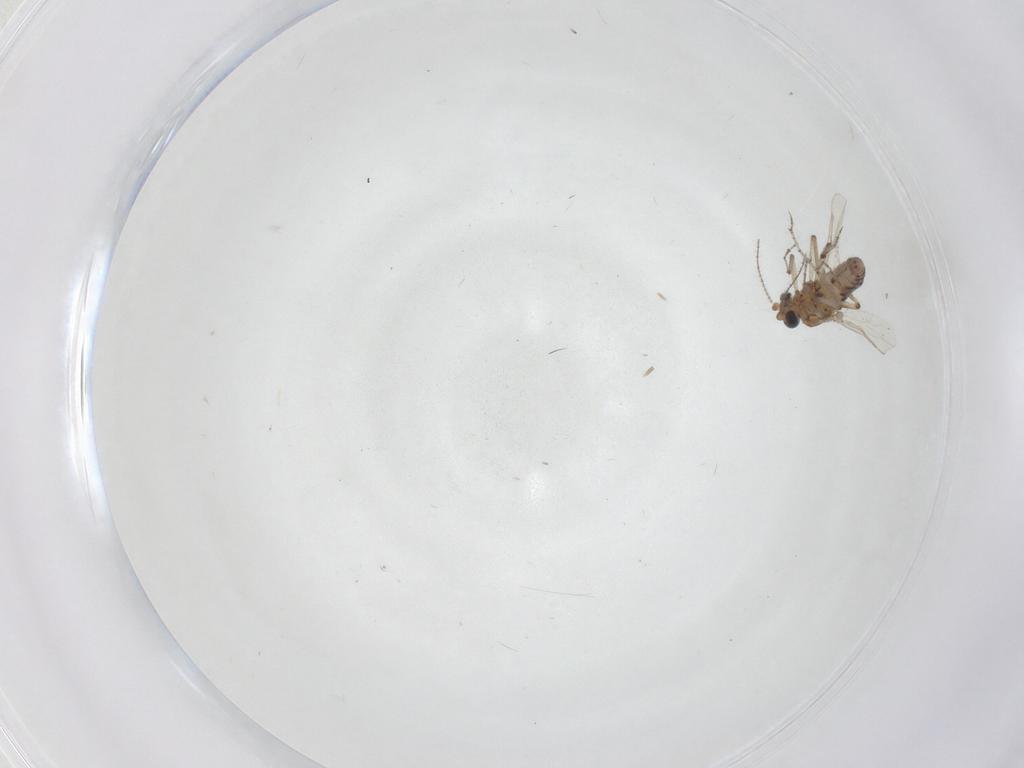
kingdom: Animalia
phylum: Arthropoda
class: Insecta
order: Diptera
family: Ceratopogonidae
